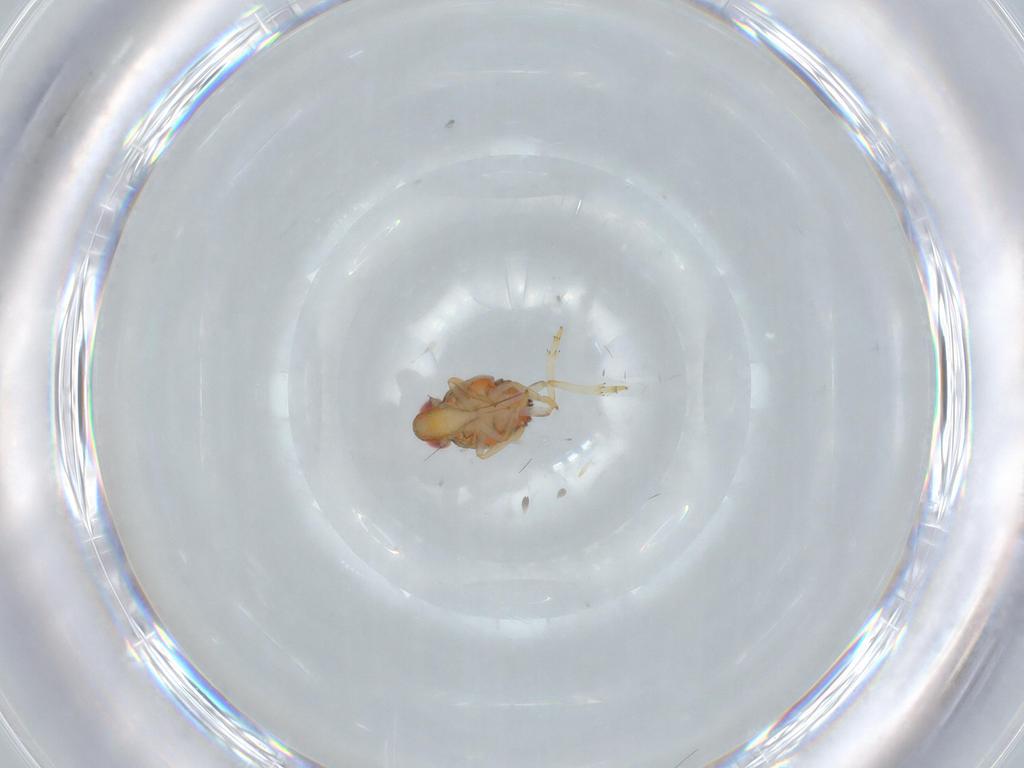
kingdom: Animalia
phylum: Arthropoda
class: Insecta
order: Hemiptera
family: Issidae
